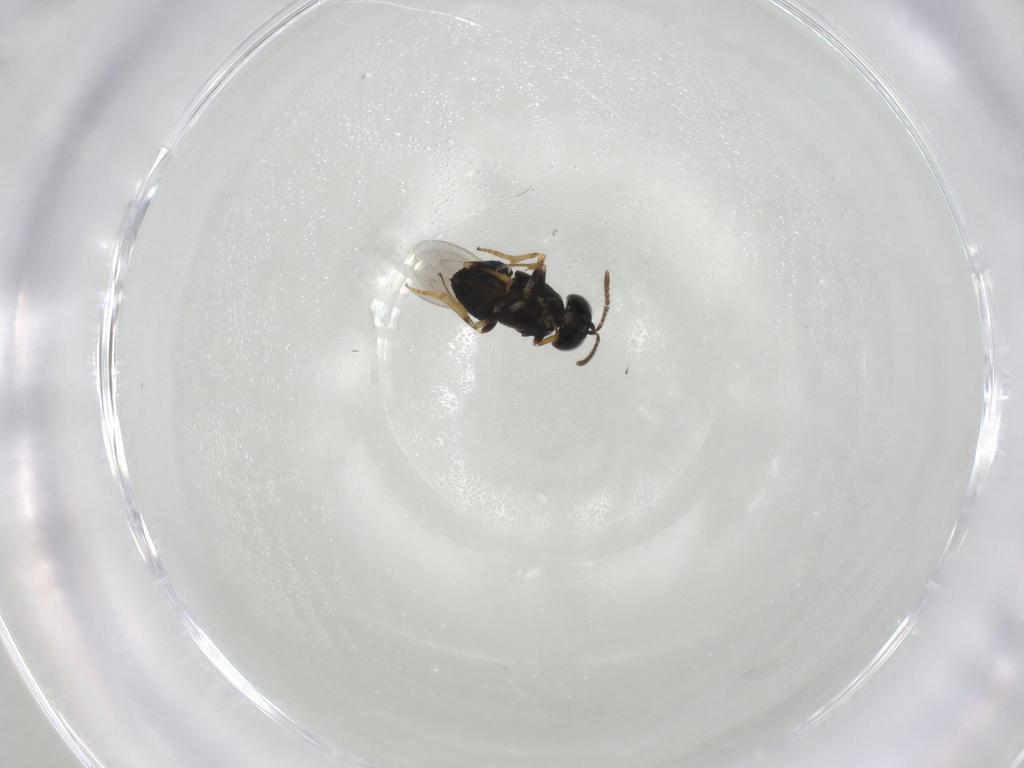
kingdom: Animalia
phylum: Arthropoda
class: Insecta
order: Hymenoptera
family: Encyrtidae
